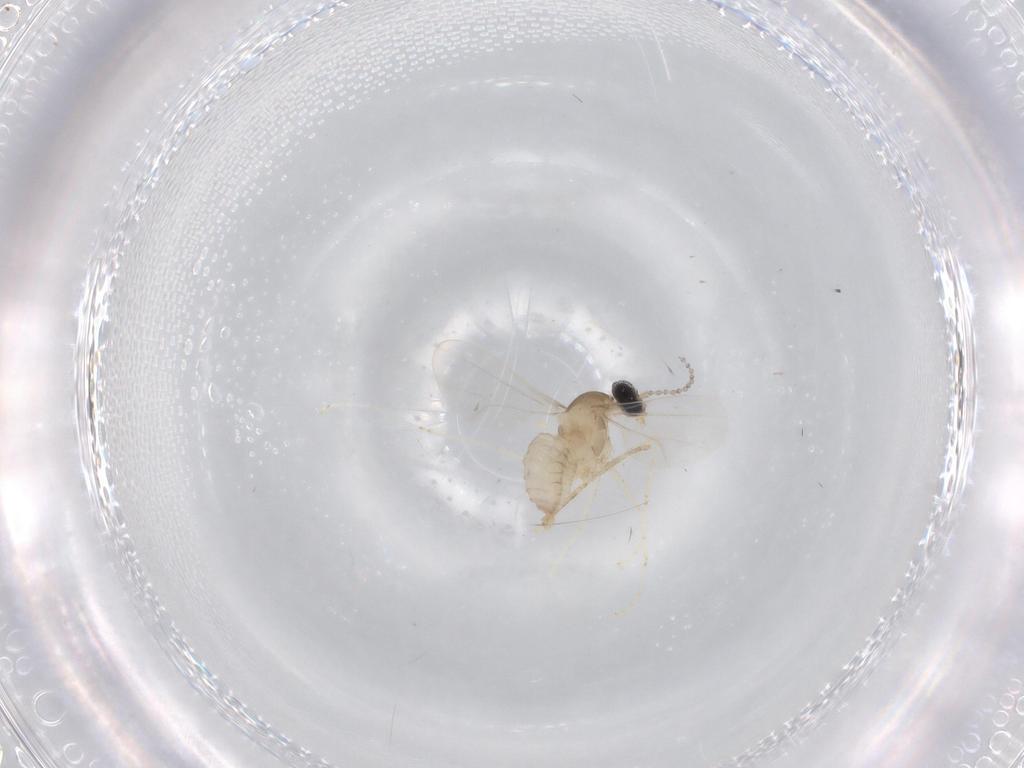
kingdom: Animalia
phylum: Arthropoda
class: Insecta
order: Diptera
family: Cecidomyiidae
